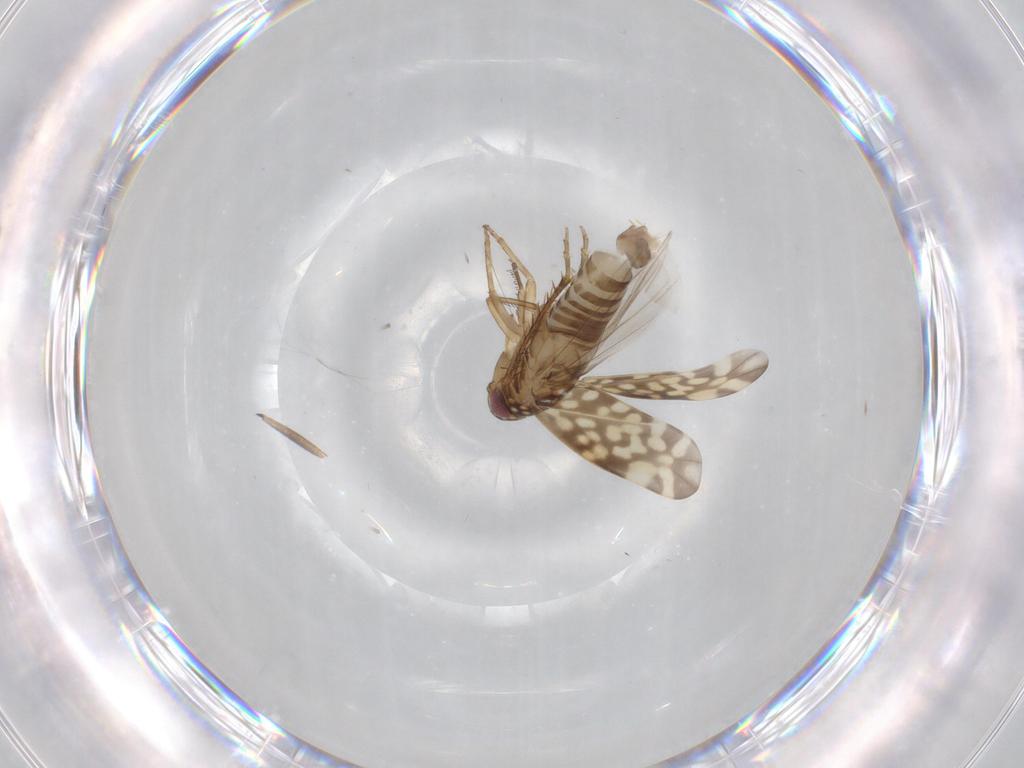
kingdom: Animalia
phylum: Arthropoda
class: Insecta
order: Hemiptera
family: Cicadellidae
